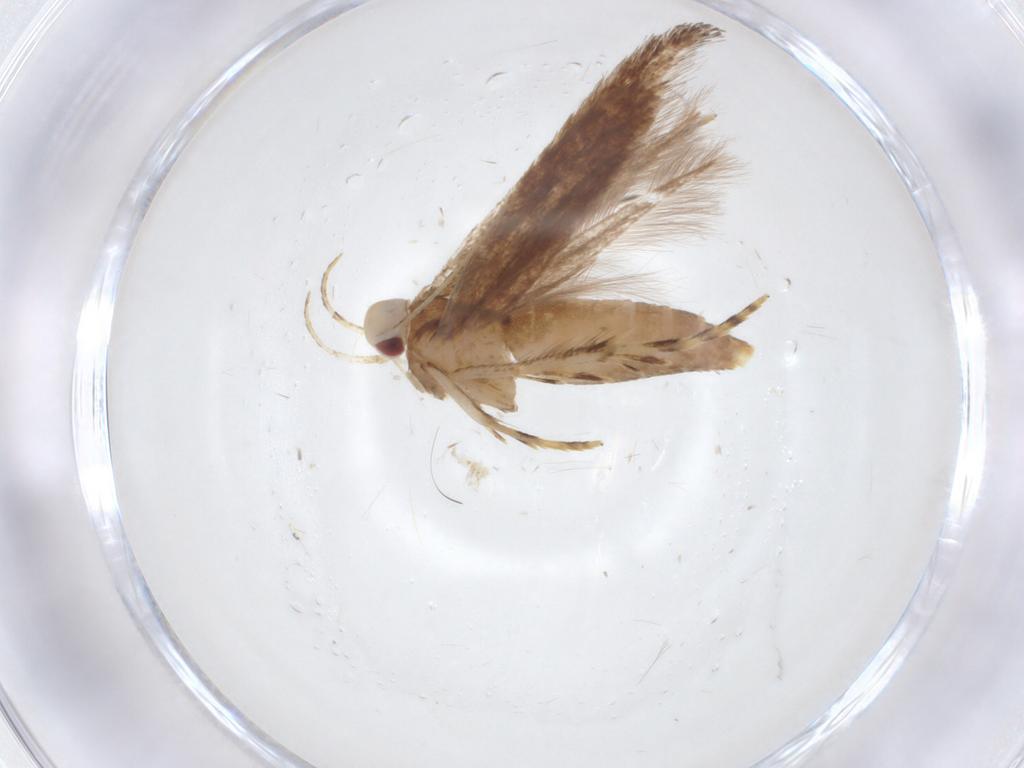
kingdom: Animalia
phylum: Arthropoda
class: Insecta
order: Lepidoptera
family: Cosmopterigidae
